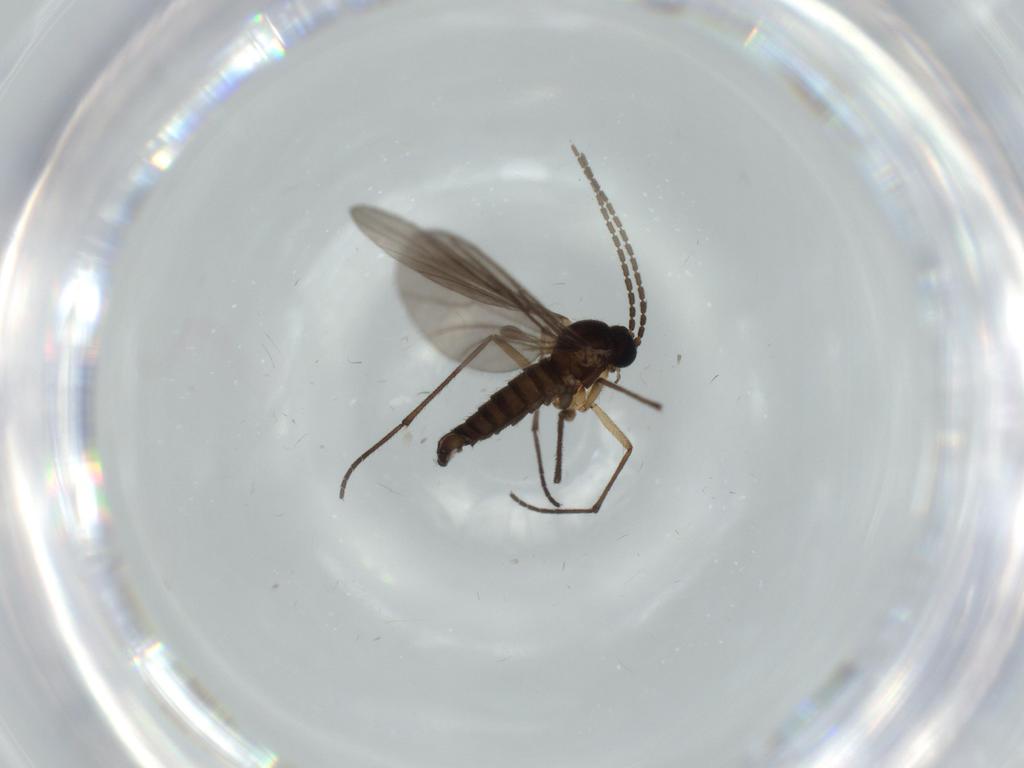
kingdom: Animalia
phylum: Arthropoda
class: Insecta
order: Diptera
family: Sciaridae
